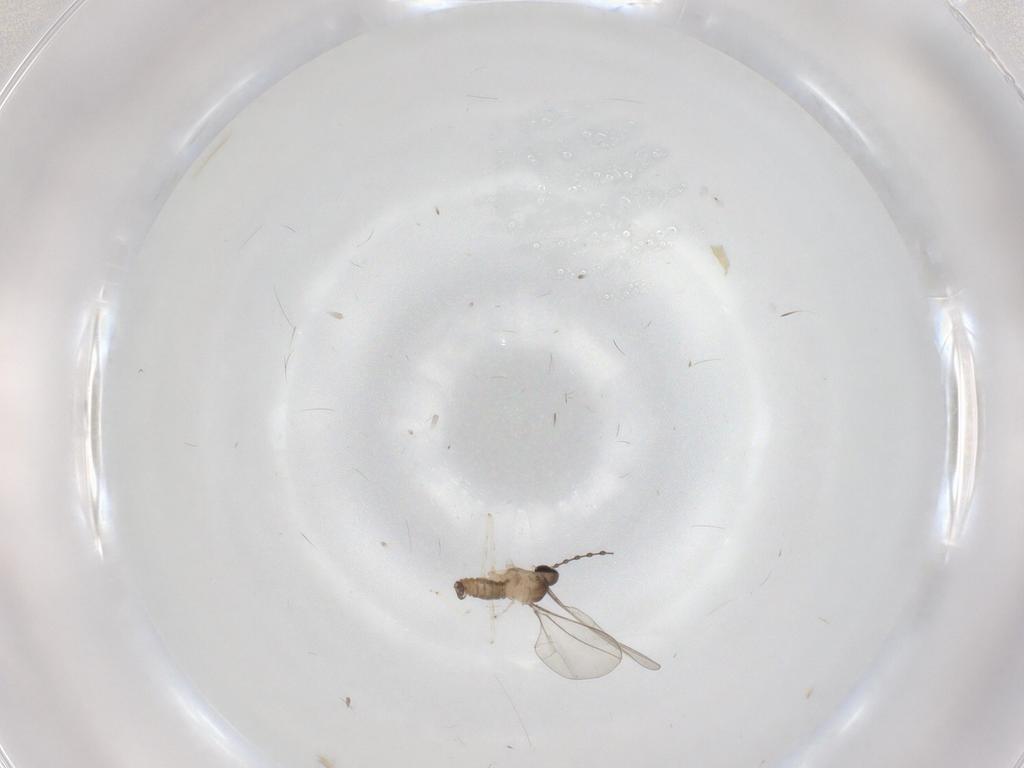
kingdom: Animalia
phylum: Arthropoda
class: Insecta
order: Diptera
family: Cecidomyiidae
